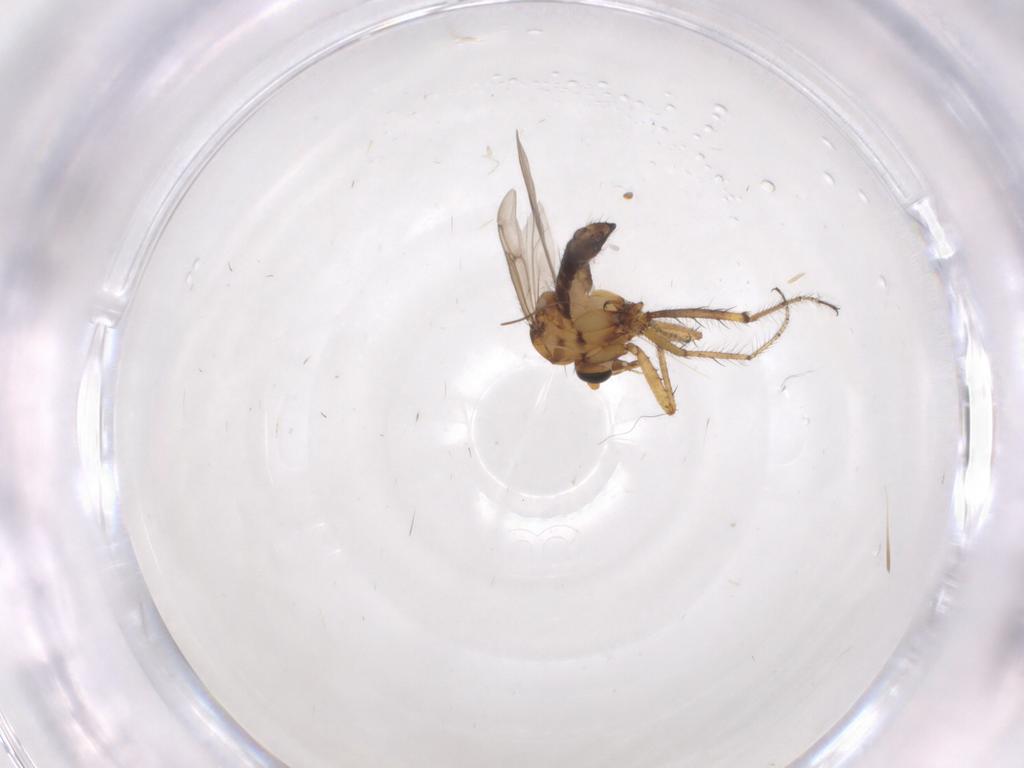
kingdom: Animalia
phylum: Arthropoda
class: Insecta
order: Diptera
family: Ceratopogonidae
